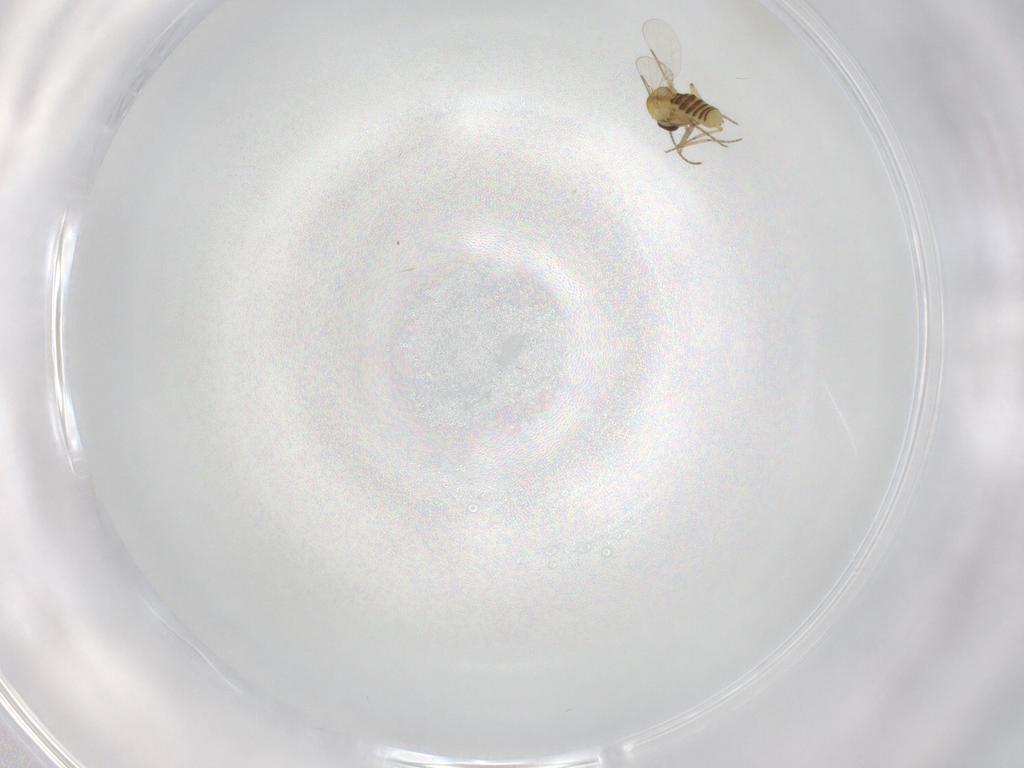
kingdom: Animalia
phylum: Arthropoda
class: Insecta
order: Diptera
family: Ceratopogonidae
